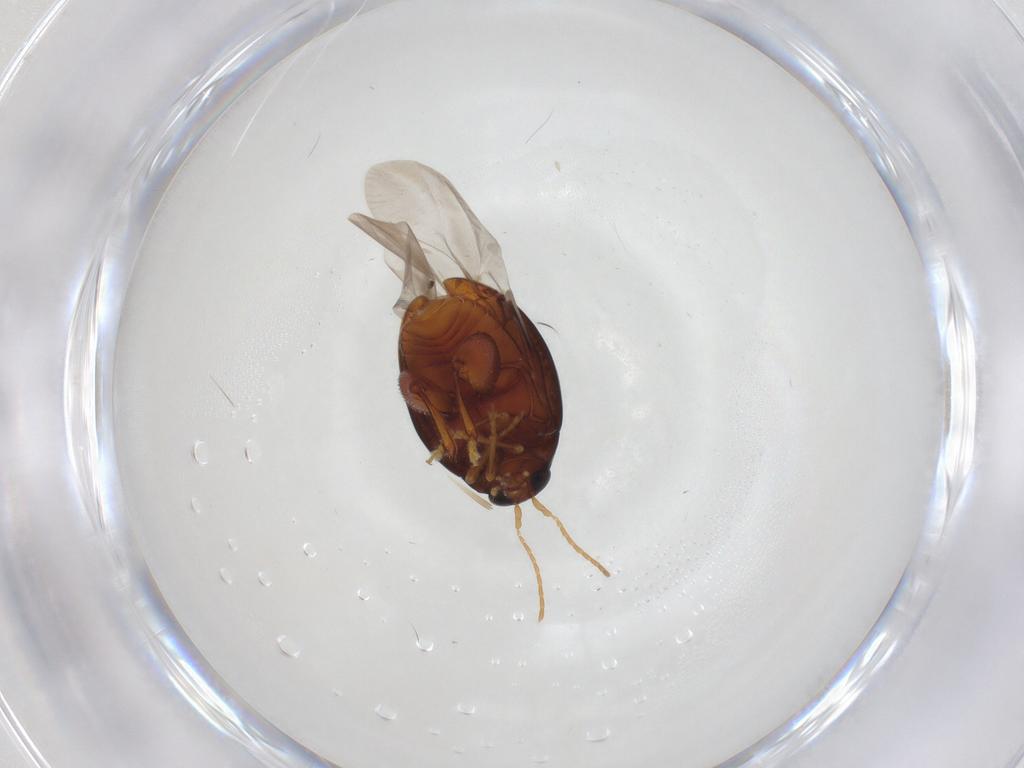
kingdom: Animalia
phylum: Arthropoda
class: Insecta
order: Coleoptera
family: Chrysomelidae
